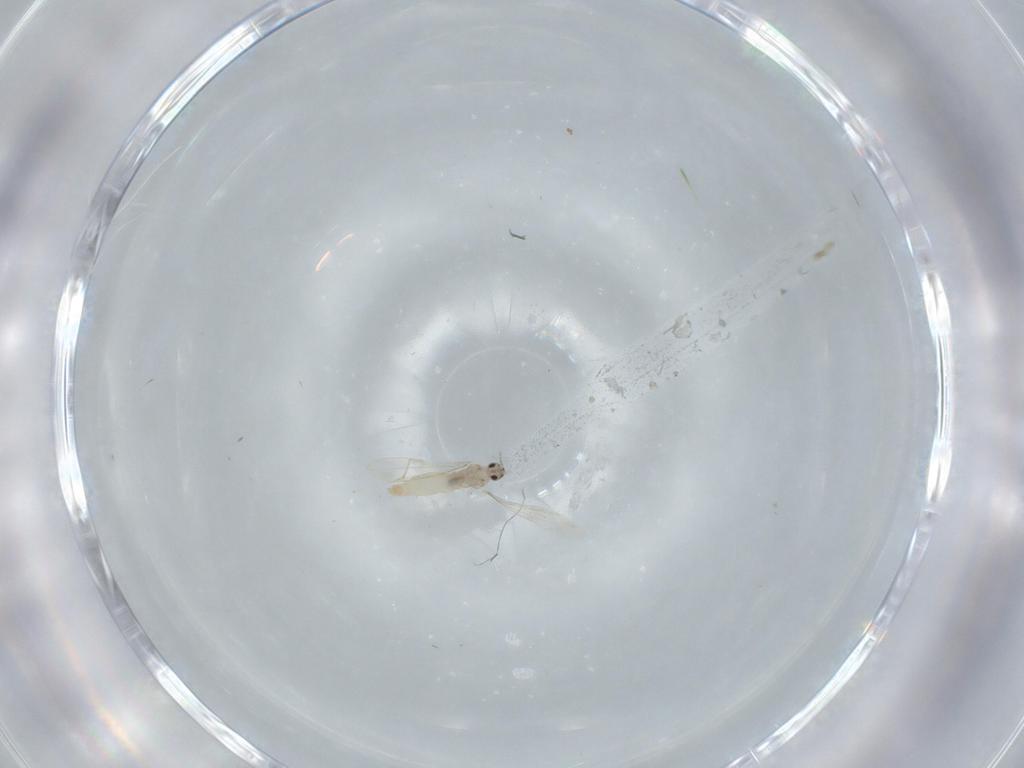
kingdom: Animalia
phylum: Arthropoda
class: Insecta
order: Diptera
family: Cecidomyiidae
